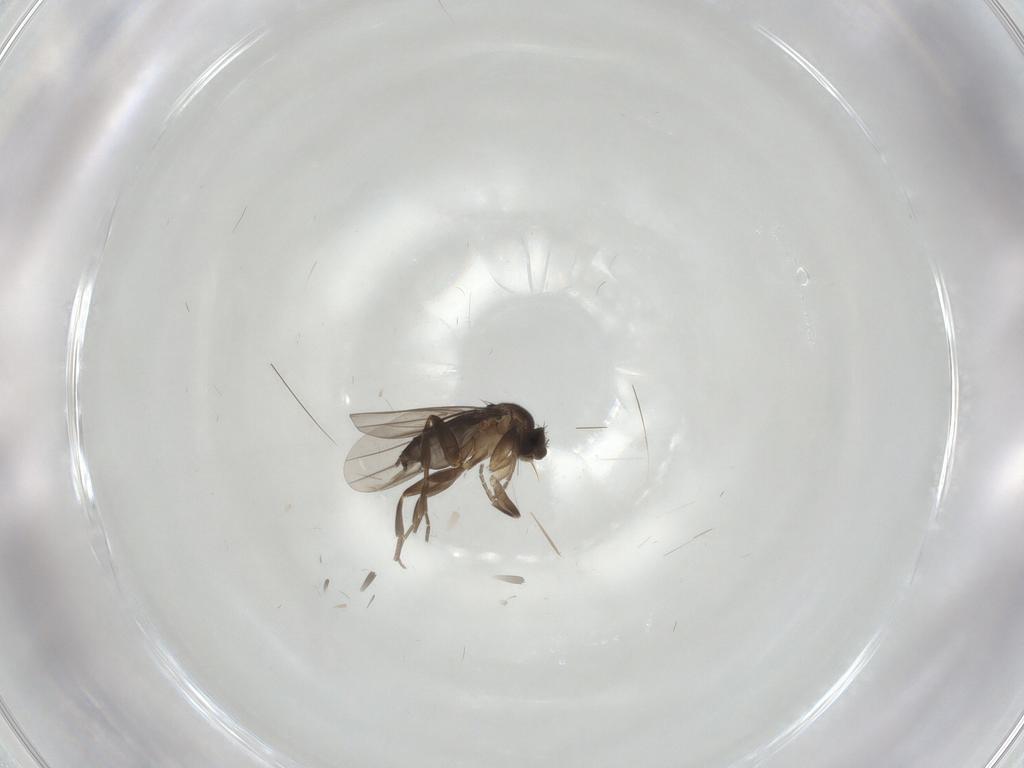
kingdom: Animalia
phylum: Arthropoda
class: Insecta
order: Diptera
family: Phoridae
